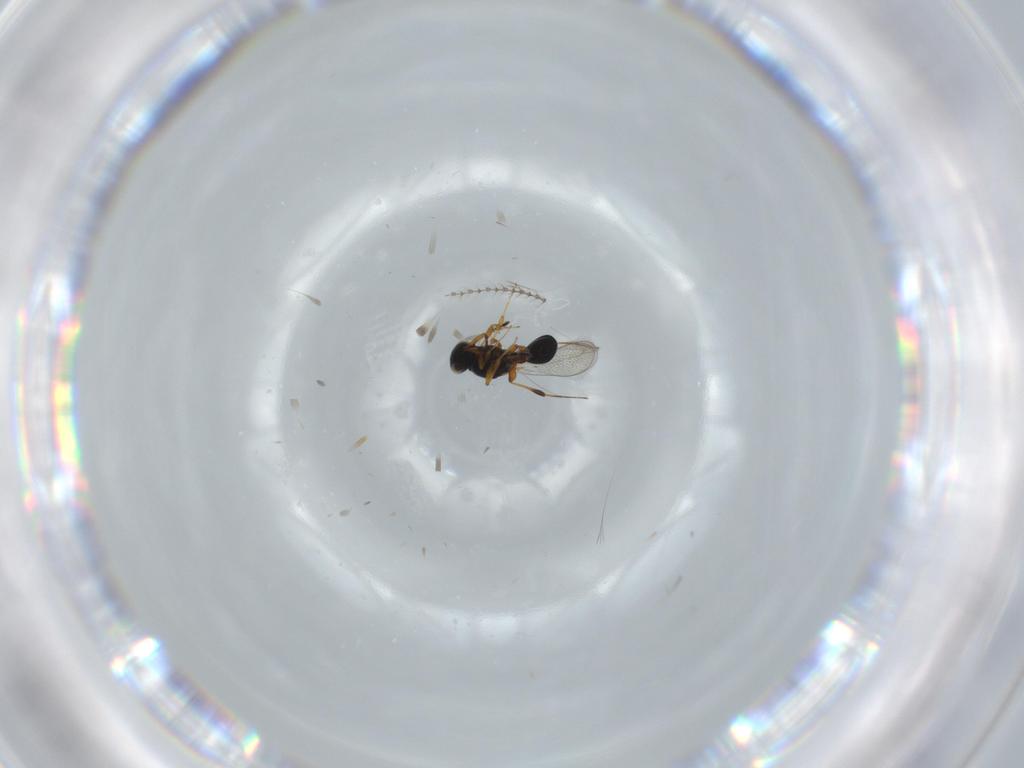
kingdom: Animalia
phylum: Arthropoda
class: Insecta
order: Hymenoptera
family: Platygastridae
